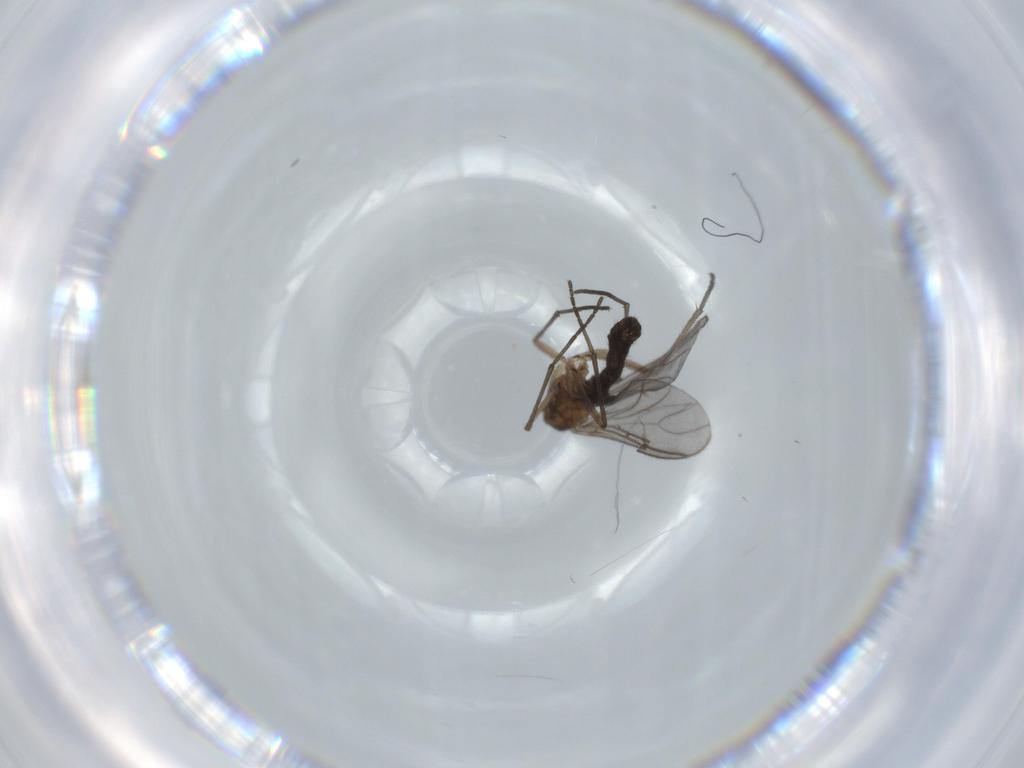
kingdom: Animalia
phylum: Arthropoda
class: Insecta
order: Diptera
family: Sciaridae
